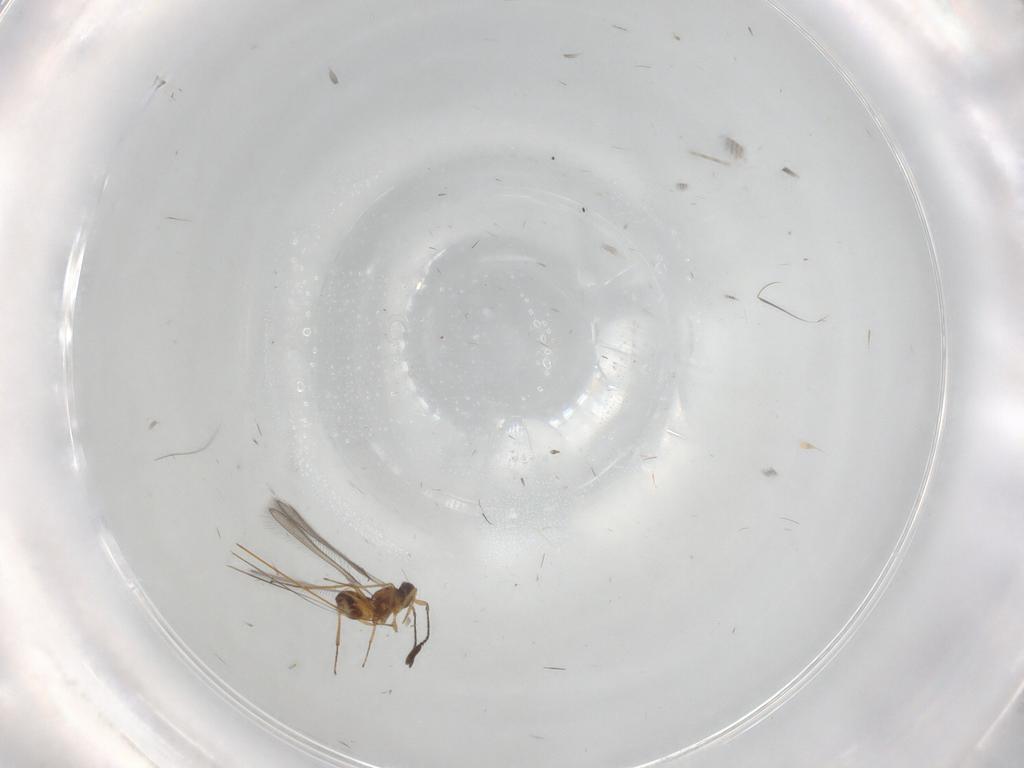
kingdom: Animalia
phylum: Arthropoda
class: Insecta
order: Hymenoptera
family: Mymaridae
